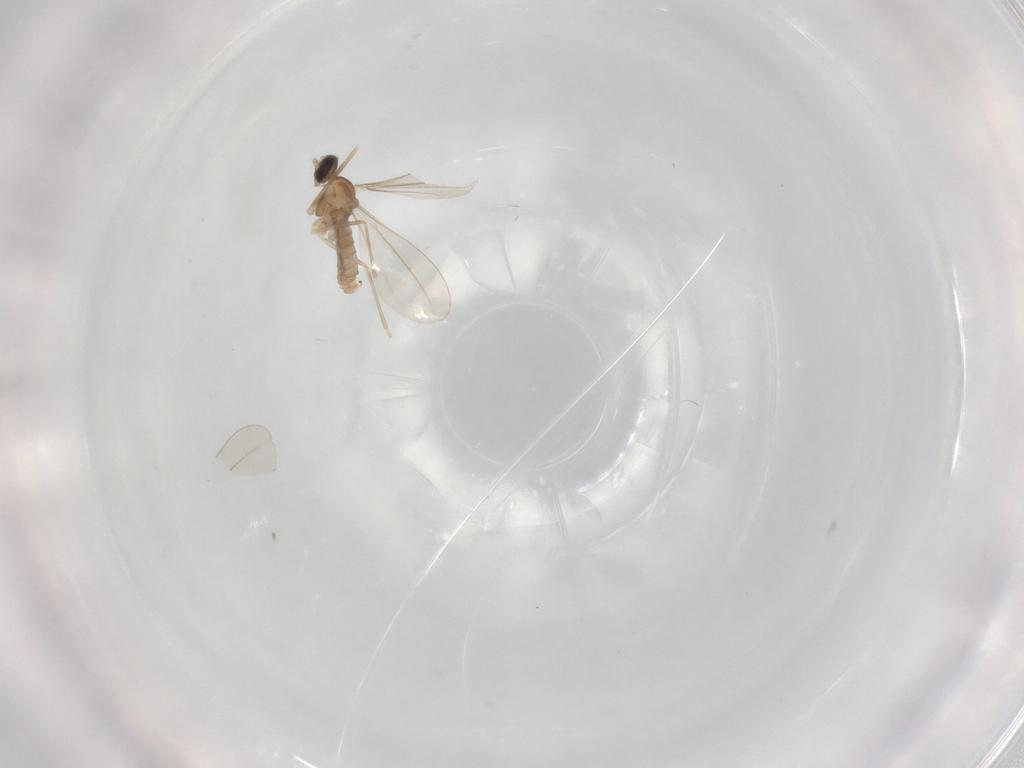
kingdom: Animalia
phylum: Arthropoda
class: Insecta
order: Diptera
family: Cecidomyiidae
